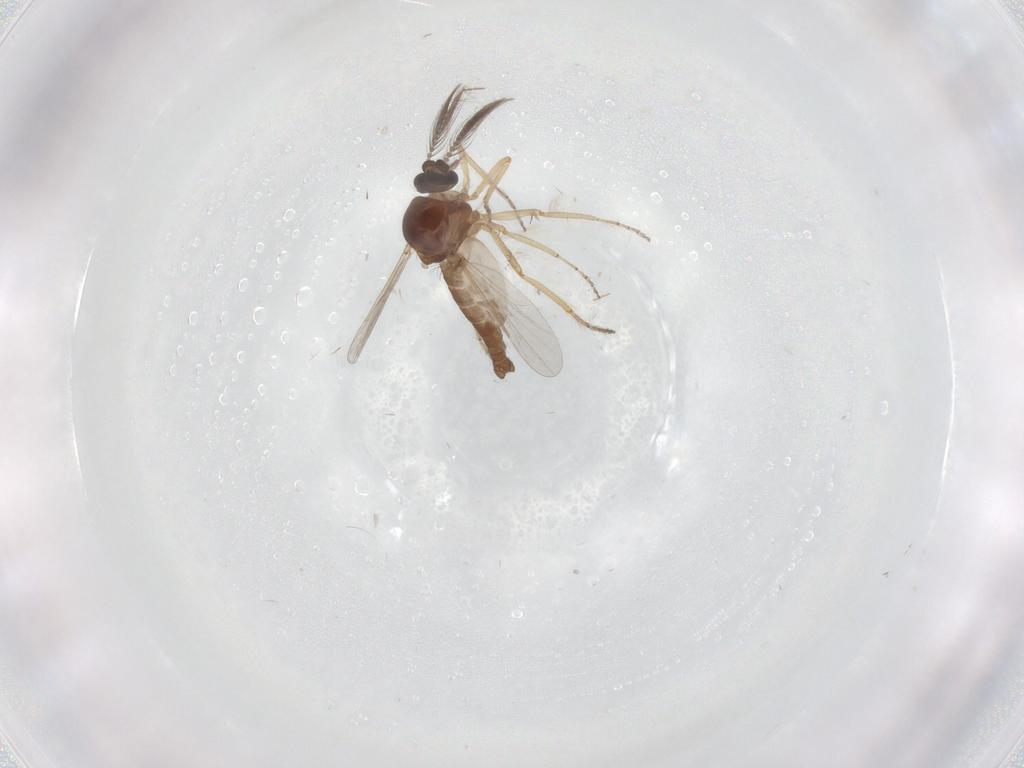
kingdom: Animalia
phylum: Arthropoda
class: Insecta
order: Diptera
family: Ceratopogonidae
